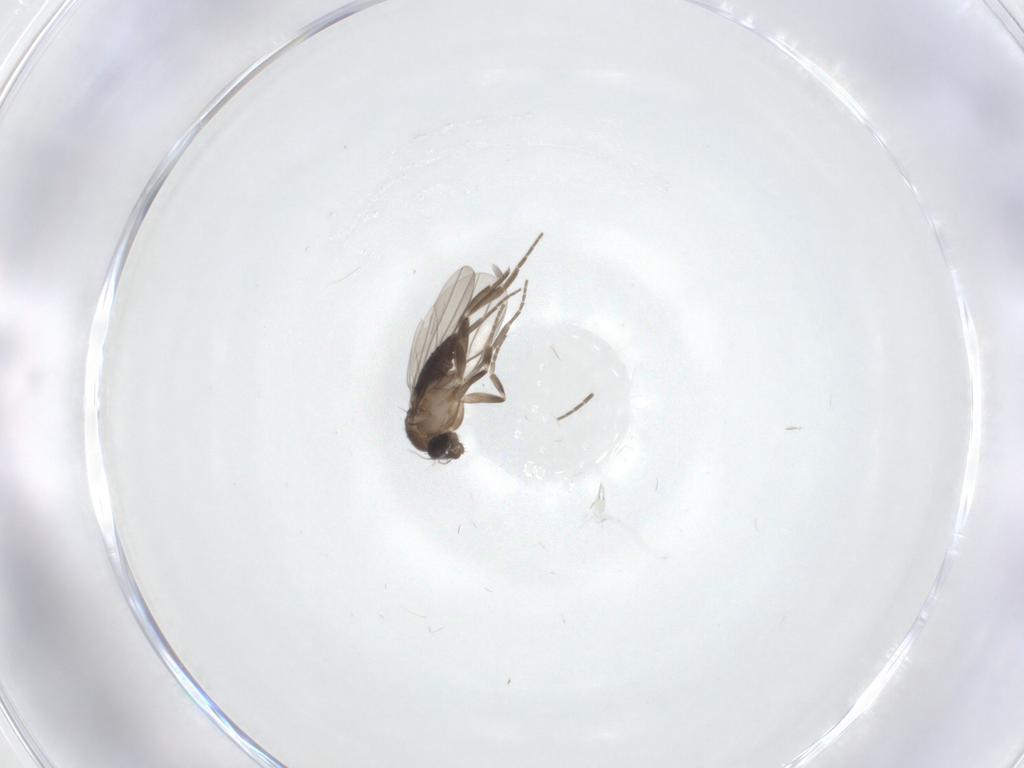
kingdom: Animalia
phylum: Arthropoda
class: Insecta
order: Diptera
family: Phoridae
